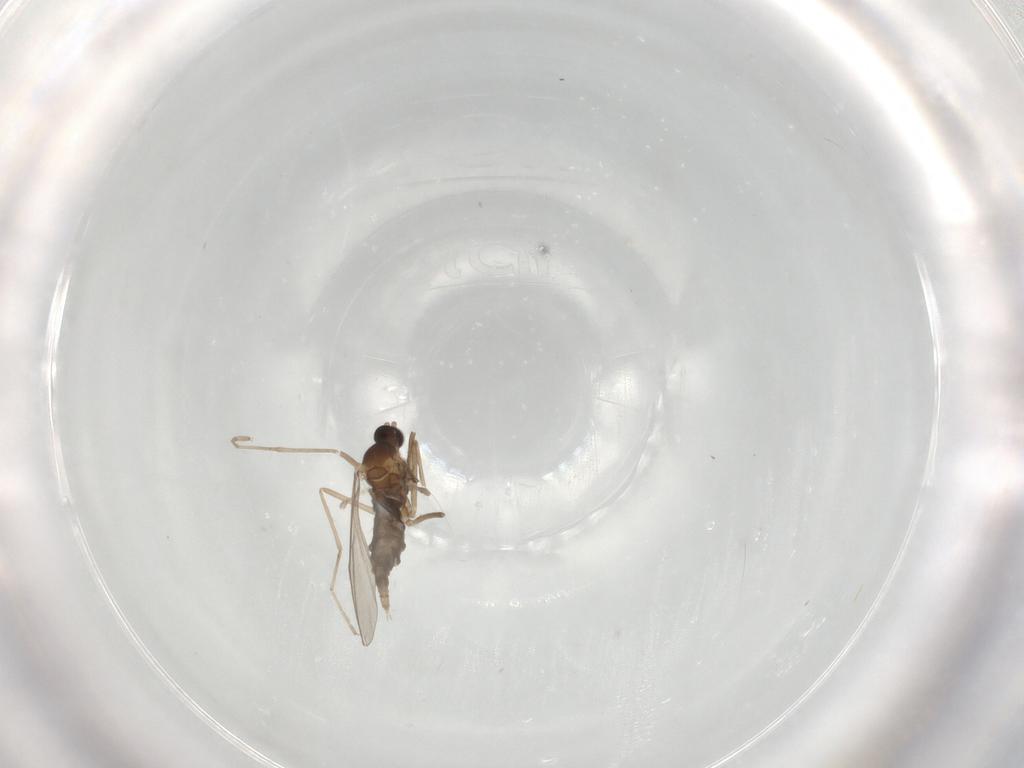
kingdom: Animalia
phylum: Arthropoda
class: Insecta
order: Diptera
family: Cecidomyiidae
